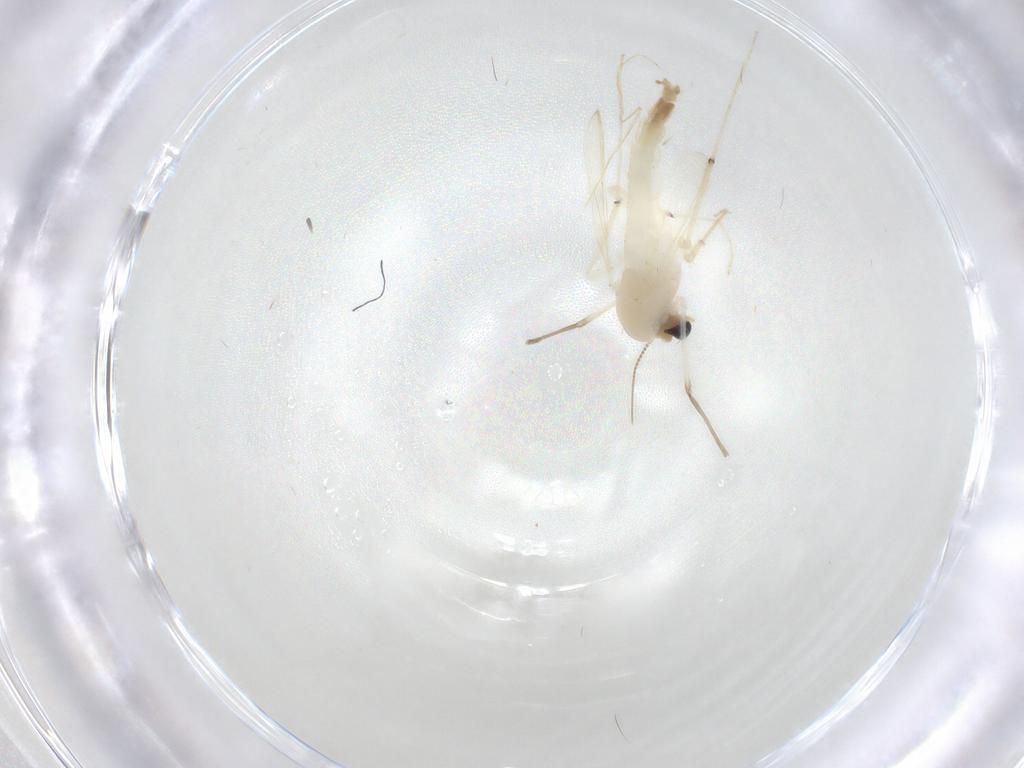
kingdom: Animalia
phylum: Arthropoda
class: Insecta
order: Diptera
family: Chironomidae
